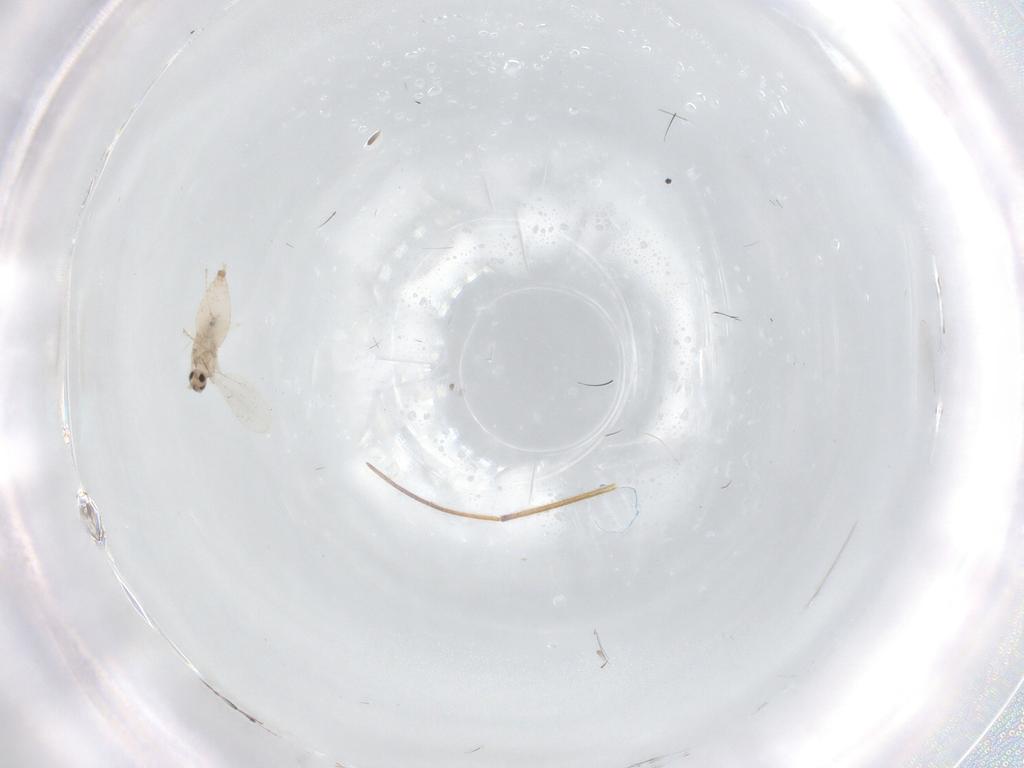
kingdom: Animalia
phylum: Arthropoda
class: Insecta
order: Diptera
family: Cecidomyiidae
